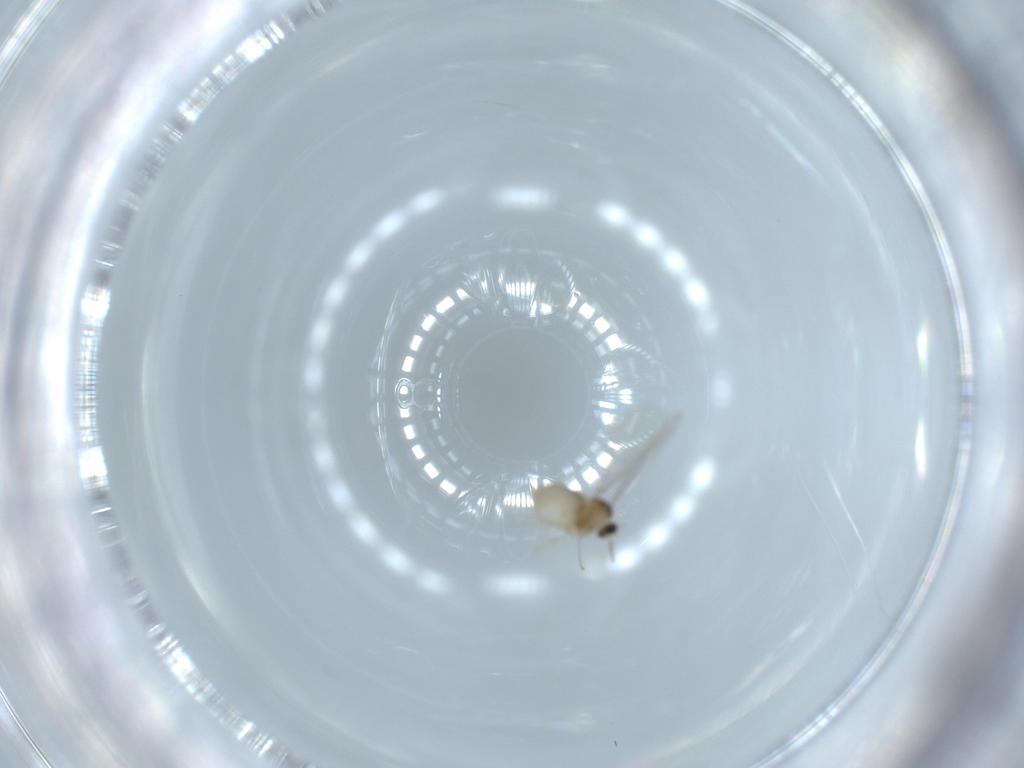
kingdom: Animalia
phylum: Arthropoda
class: Insecta
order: Diptera
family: Cecidomyiidae
